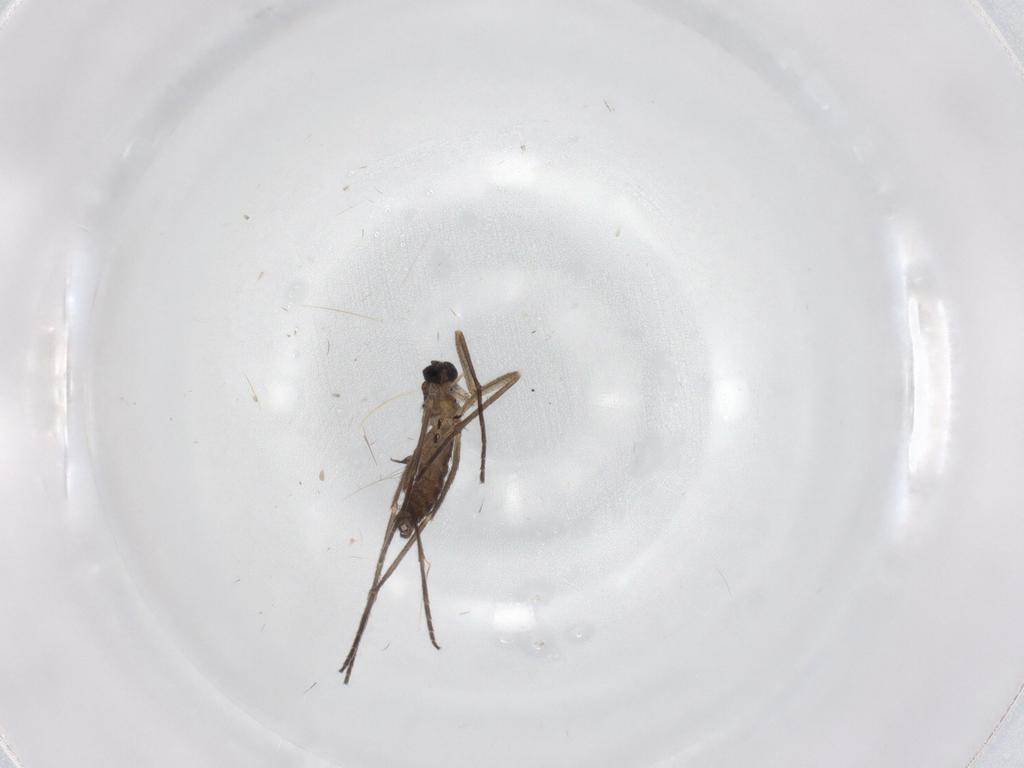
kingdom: Animalia
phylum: Arthropoda
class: Insecta
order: Diptera
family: Sciaridae
